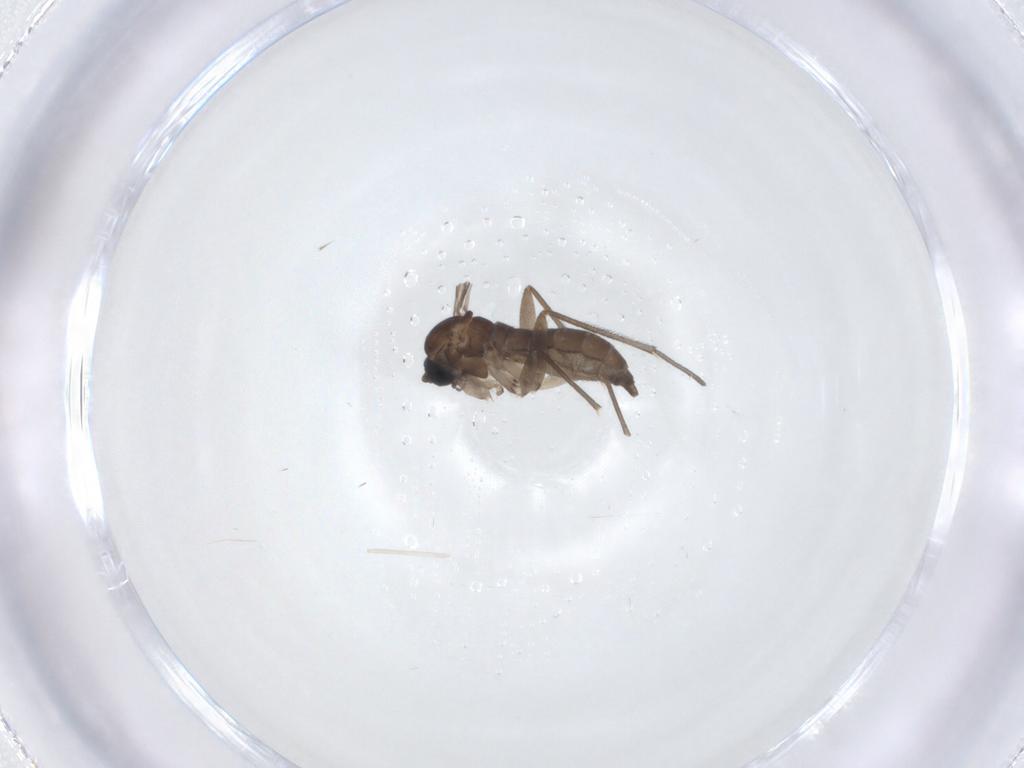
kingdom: Animalia
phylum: Arthropoda
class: Insecta
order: Diptera
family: Sciaridae
